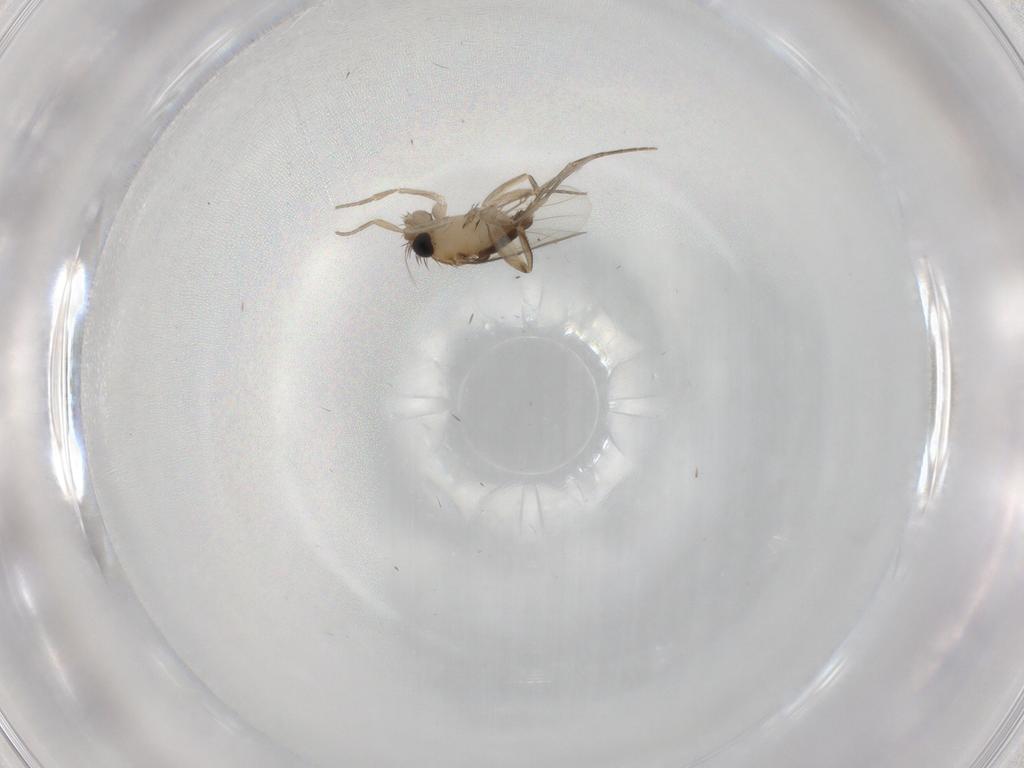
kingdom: Animalia
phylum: Arthropoda
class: Insecta
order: Diptera
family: Phoridae
